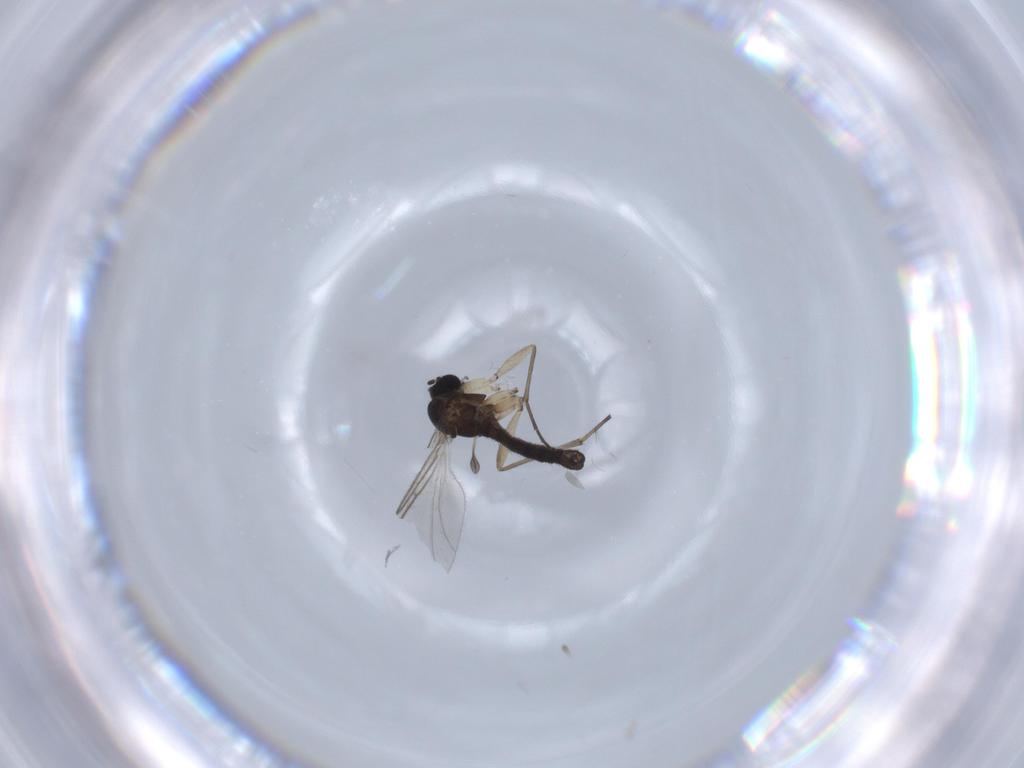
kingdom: Animalia
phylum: Arthropoda
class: Insecta
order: Diptera
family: Sciaridae
